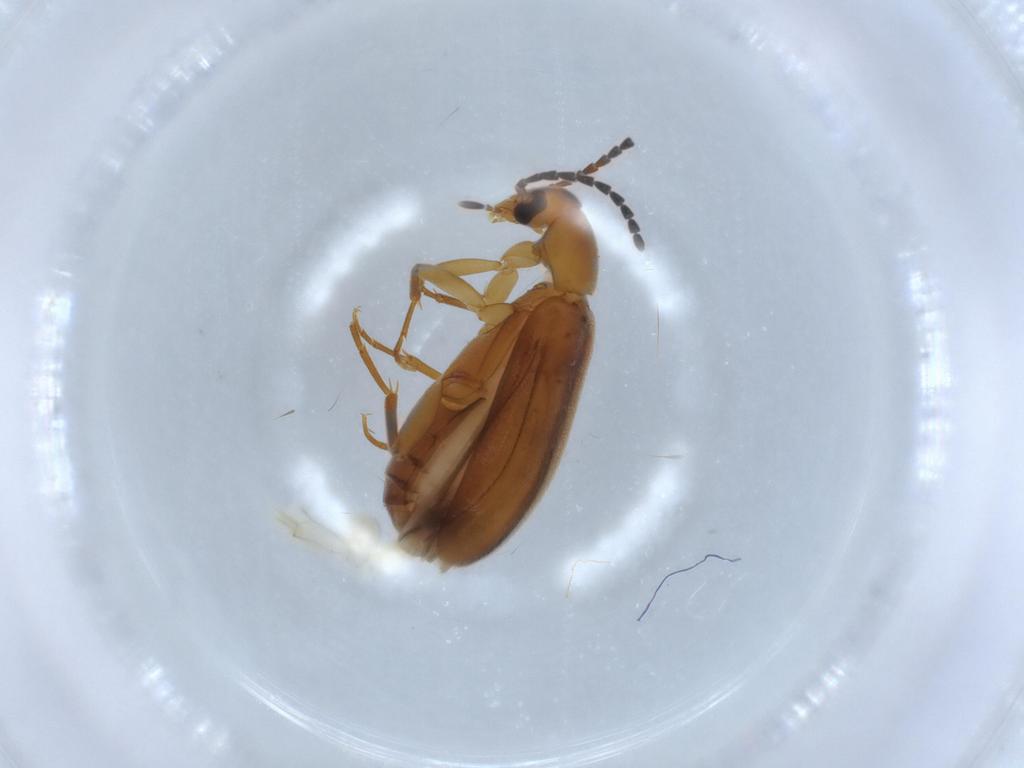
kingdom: Animalia
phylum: Arthropoda
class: Insecta
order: Coleoptera
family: Scraptiidae
